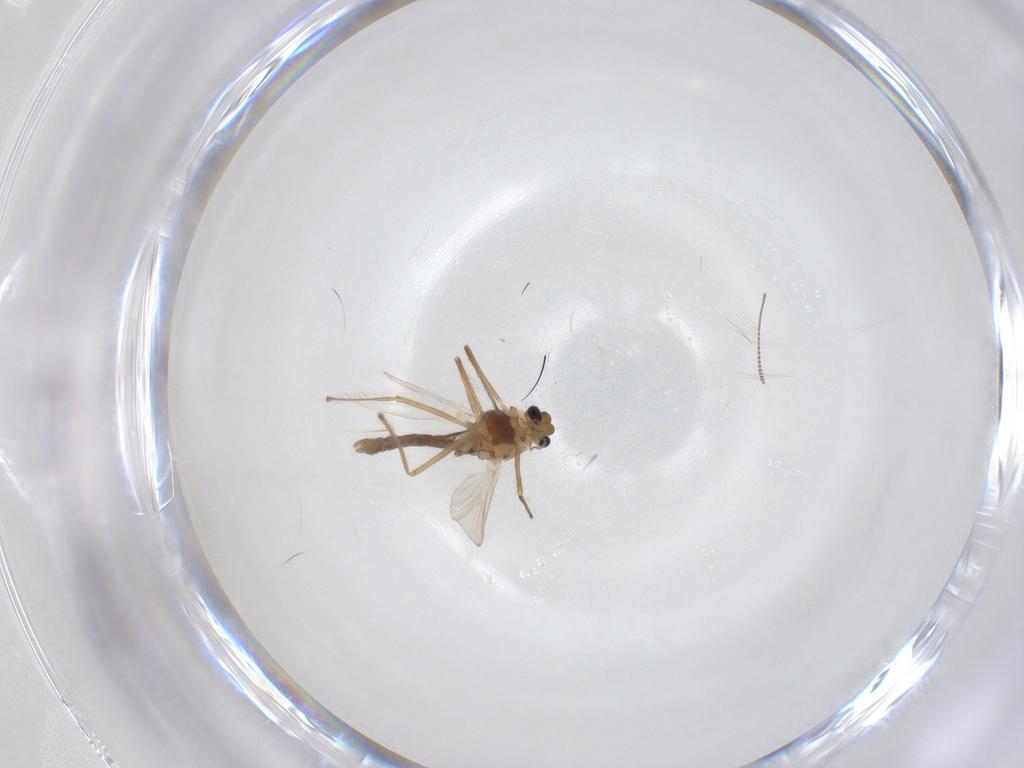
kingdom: Animalia
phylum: Arthropoda
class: Insecta
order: Diptera
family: Chironomidae
